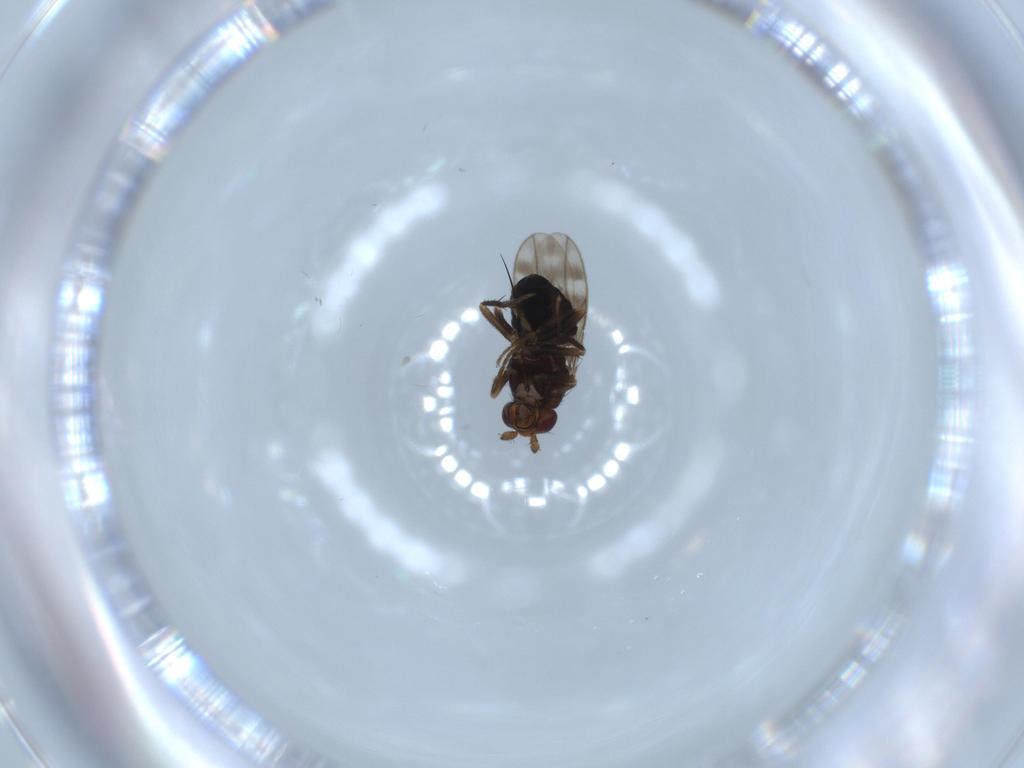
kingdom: Animalia
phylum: Arthropoda
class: Insecta
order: Diptera
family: Sphaeroceridae
